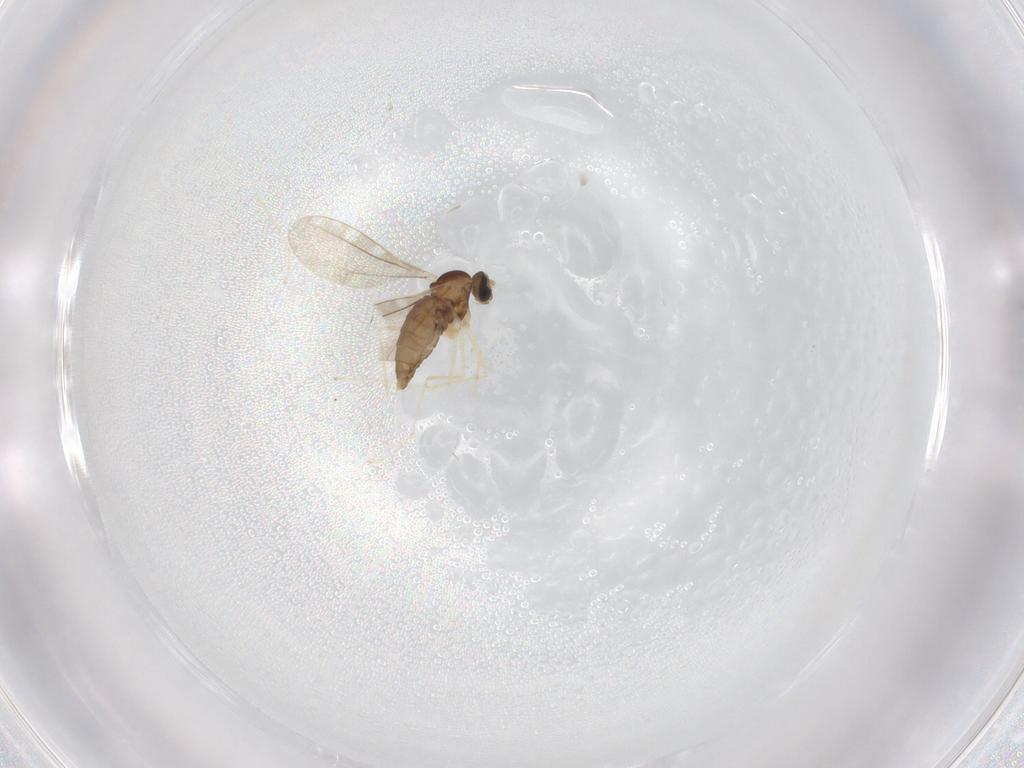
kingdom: Animalia
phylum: Arthropoda
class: Insecta
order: Diptera
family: Cecidomyiidae
